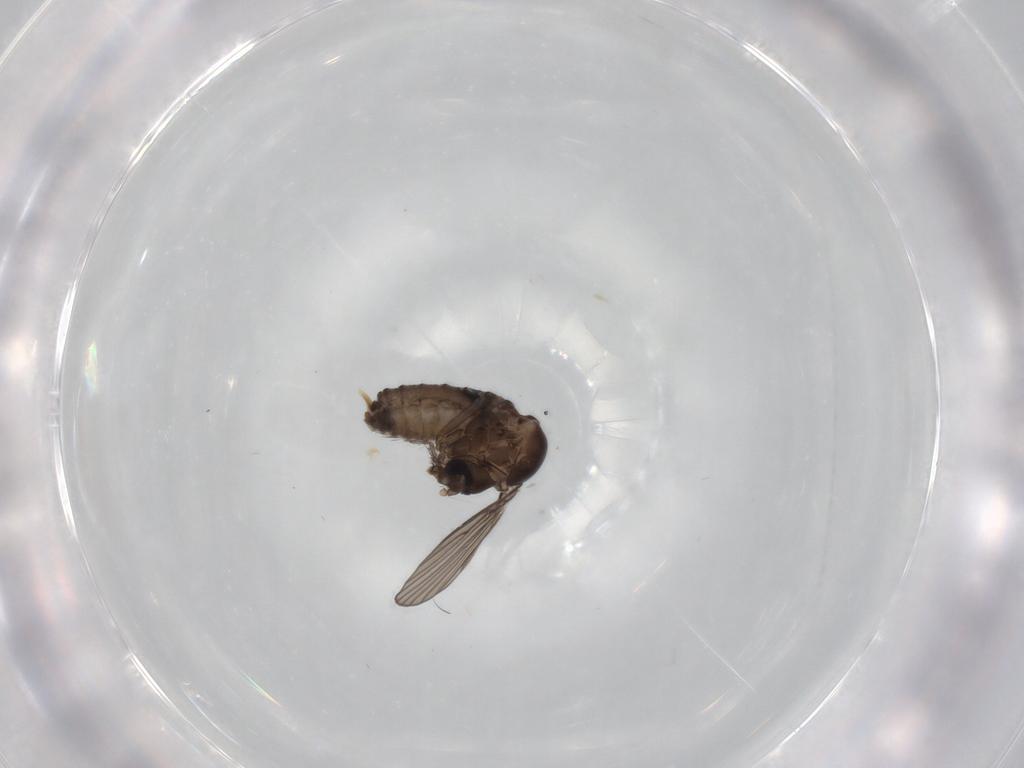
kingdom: Animalia
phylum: Arthropoda
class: Insecta
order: Diptera
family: Psychodidae
